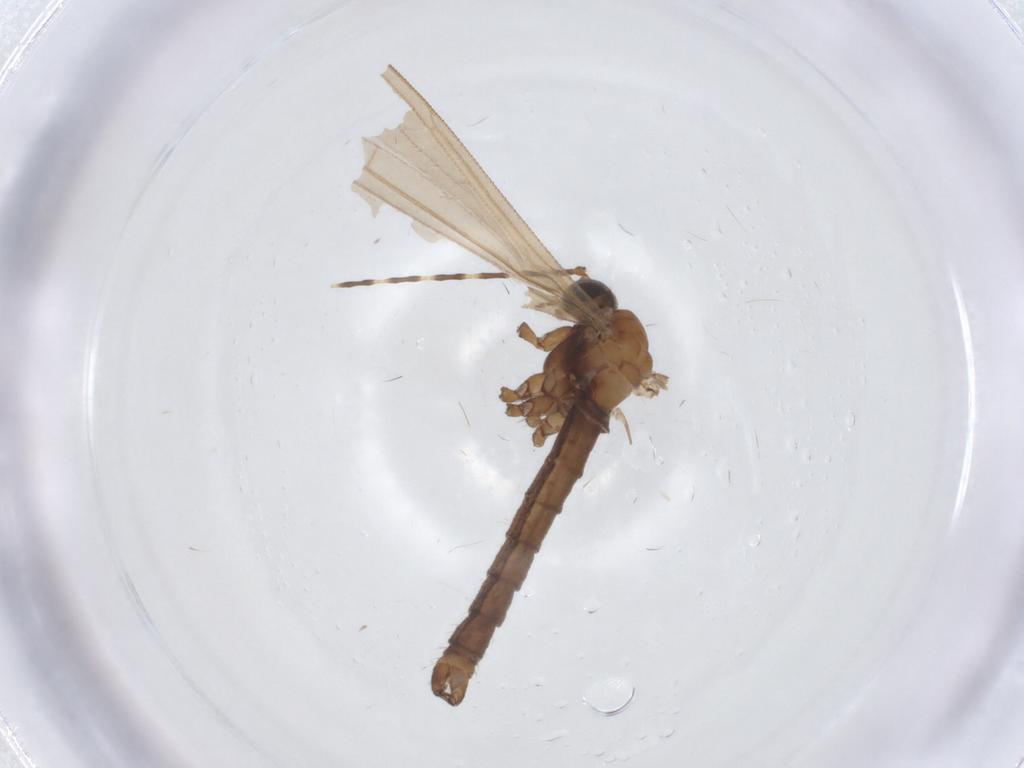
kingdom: Animalia
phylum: Arthropoda
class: Insecta
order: Diptera
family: Limoniidae
